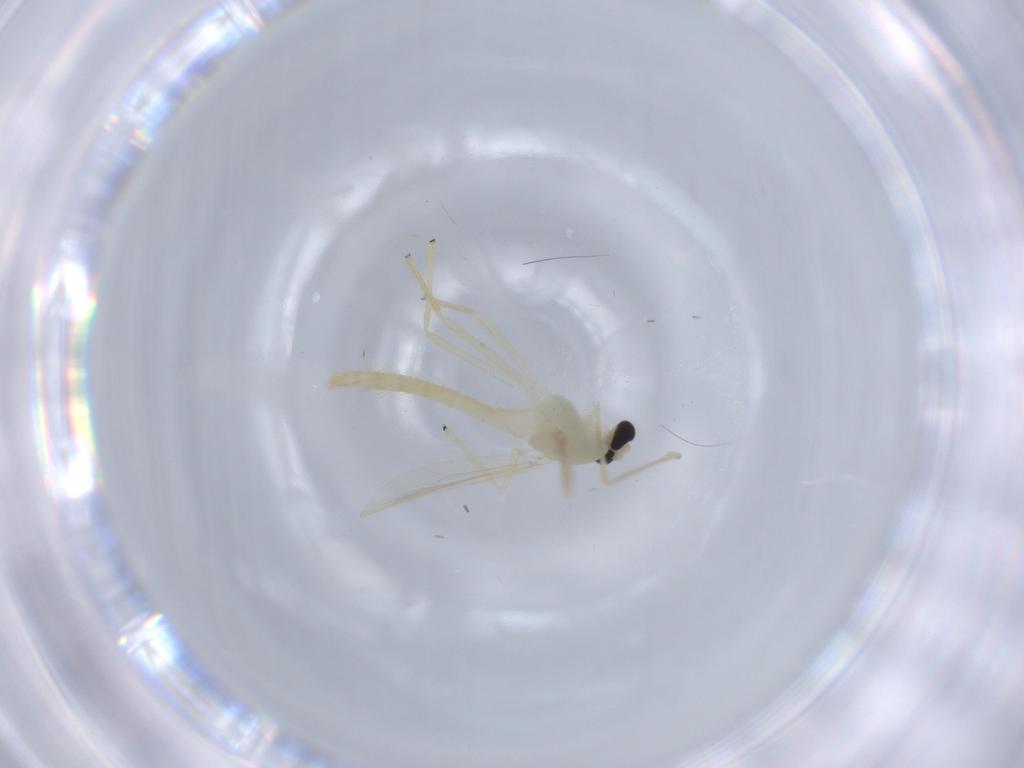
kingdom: Animalia
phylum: Arthropoda
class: Insecta
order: Diptera
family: Chironomidae
